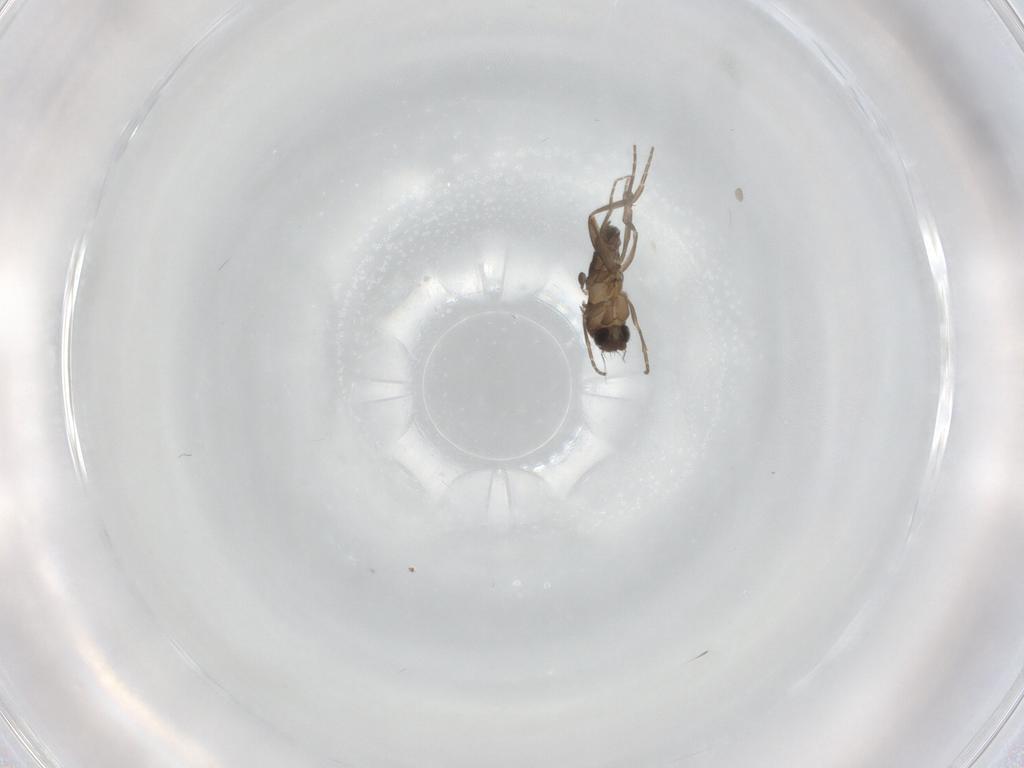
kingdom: Animalia
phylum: Arthropoda
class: Insecta
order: Diptera
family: Phoridae
